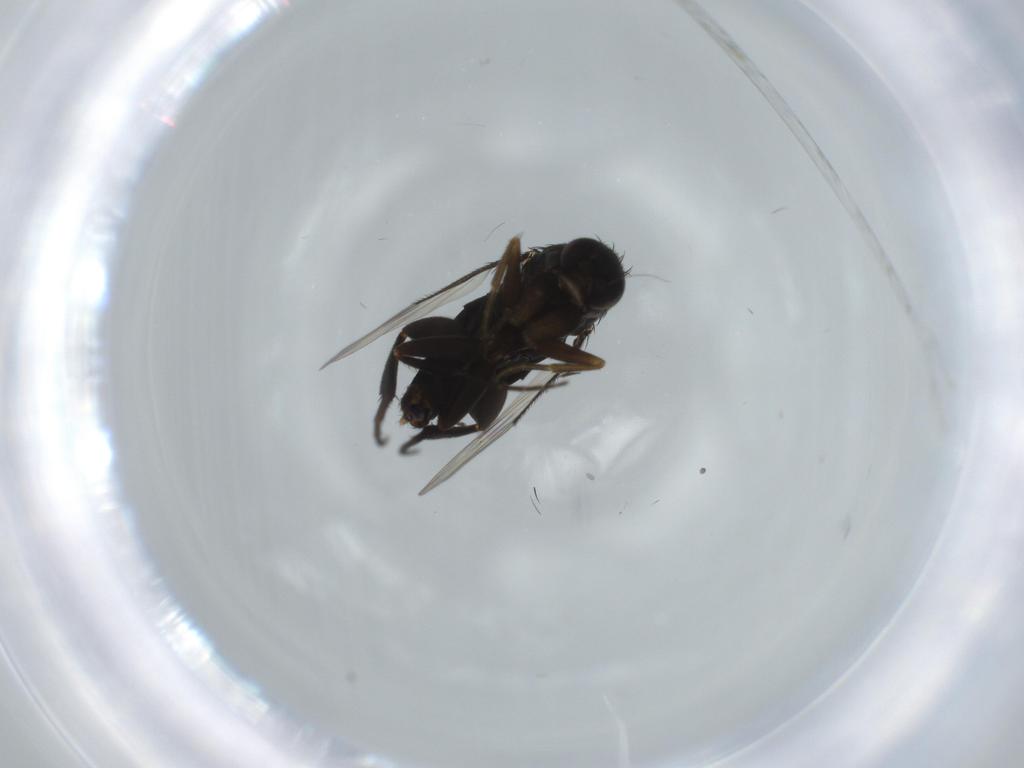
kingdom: Animalia
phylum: Arthropoda
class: Insecta
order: Diptera
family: Phoridae
